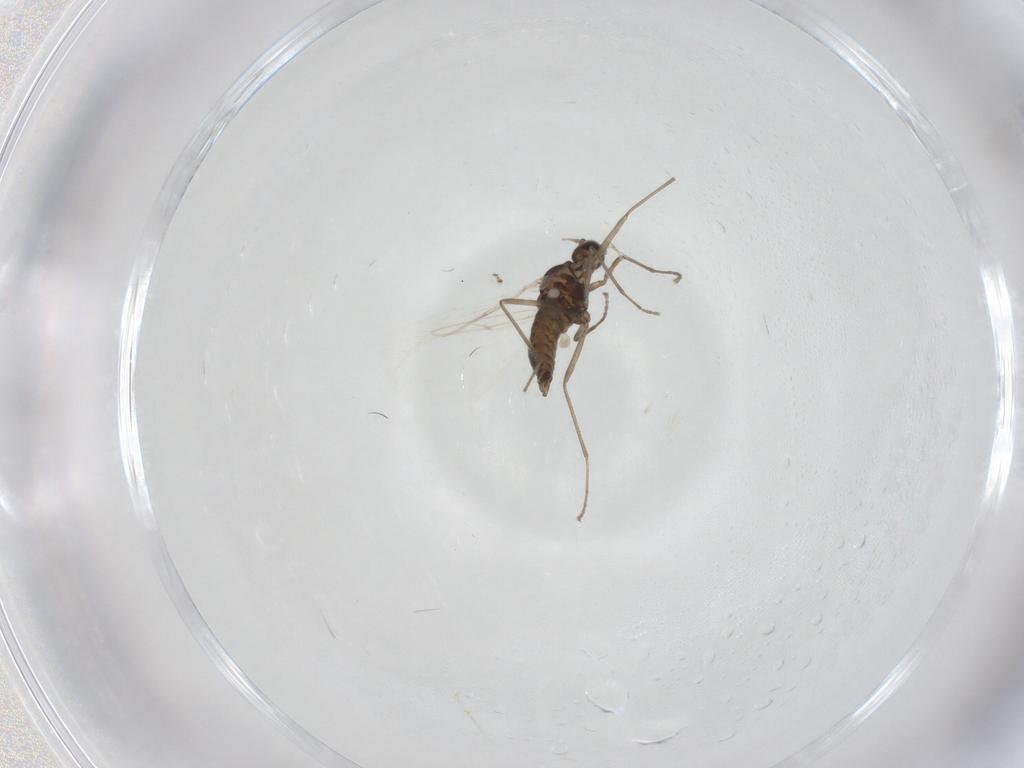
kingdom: Animalia
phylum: Arthropoda
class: Insecta
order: Diptera
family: Cecidomyiidae
